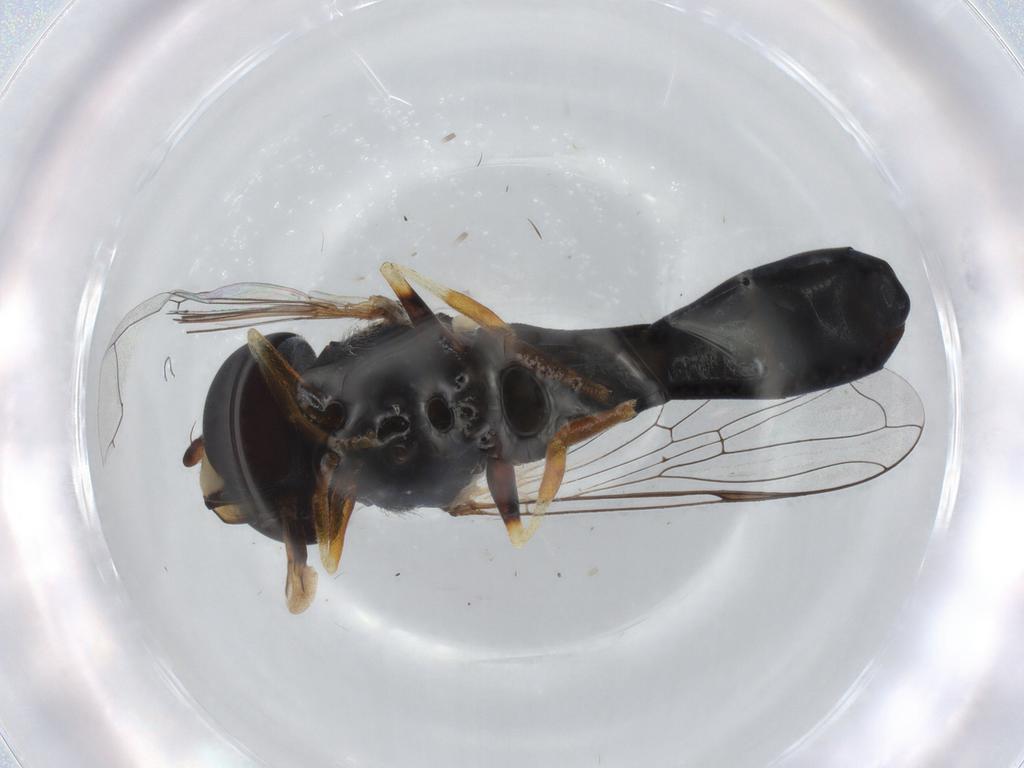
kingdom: Animalia
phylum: Arthropoda
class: Insecta
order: Diptera
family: Syrphidae
